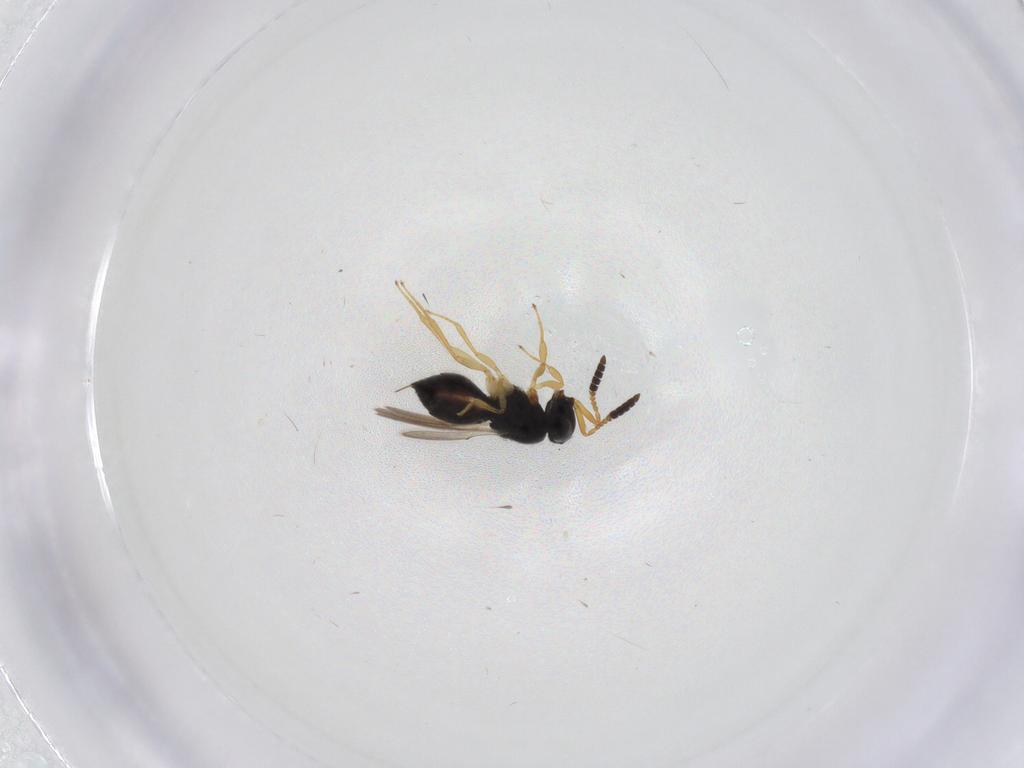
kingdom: Animalia
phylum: Arthropoda
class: Insecta
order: Hymenoptera
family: Scelionidae
